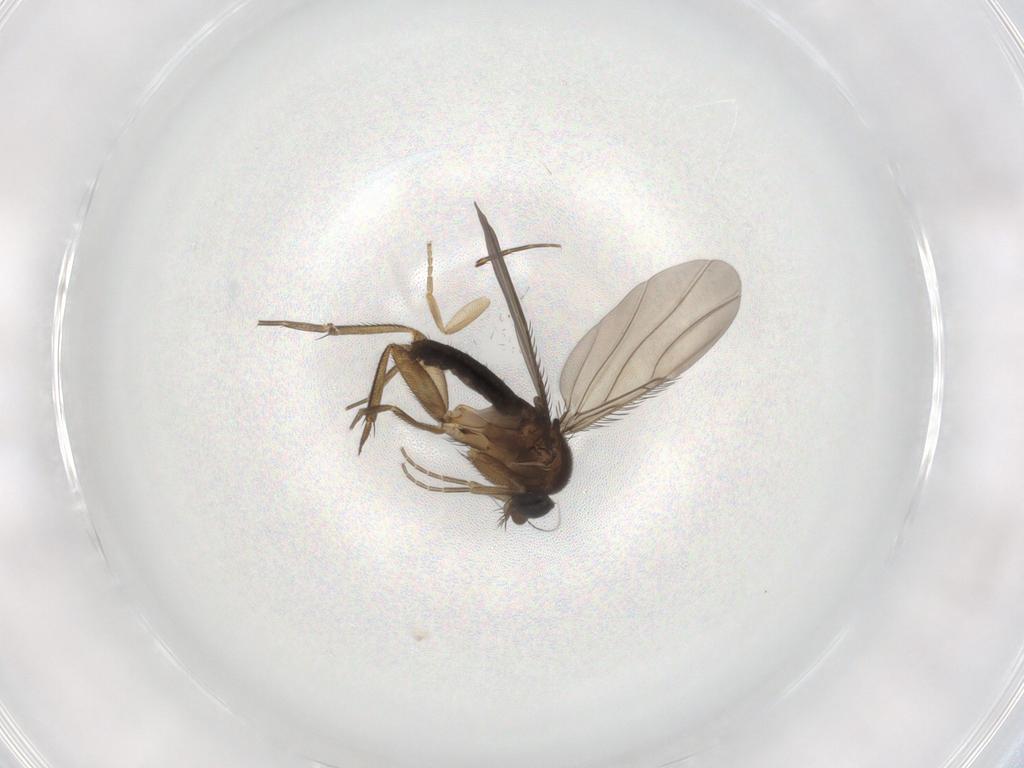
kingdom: Animalia
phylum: Arthropoda
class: Insecta
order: Diptera
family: Phoridae
